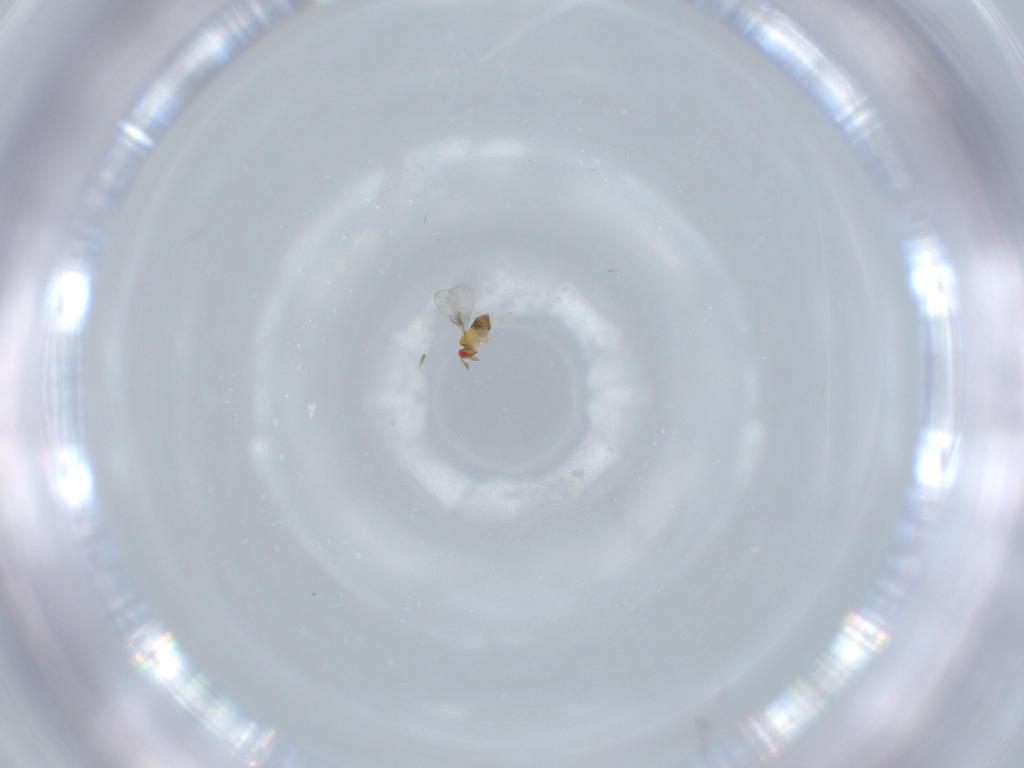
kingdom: Animalia
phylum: Arthropoda
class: Insecta
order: Hymenoptera
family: Trichogrammatidae
